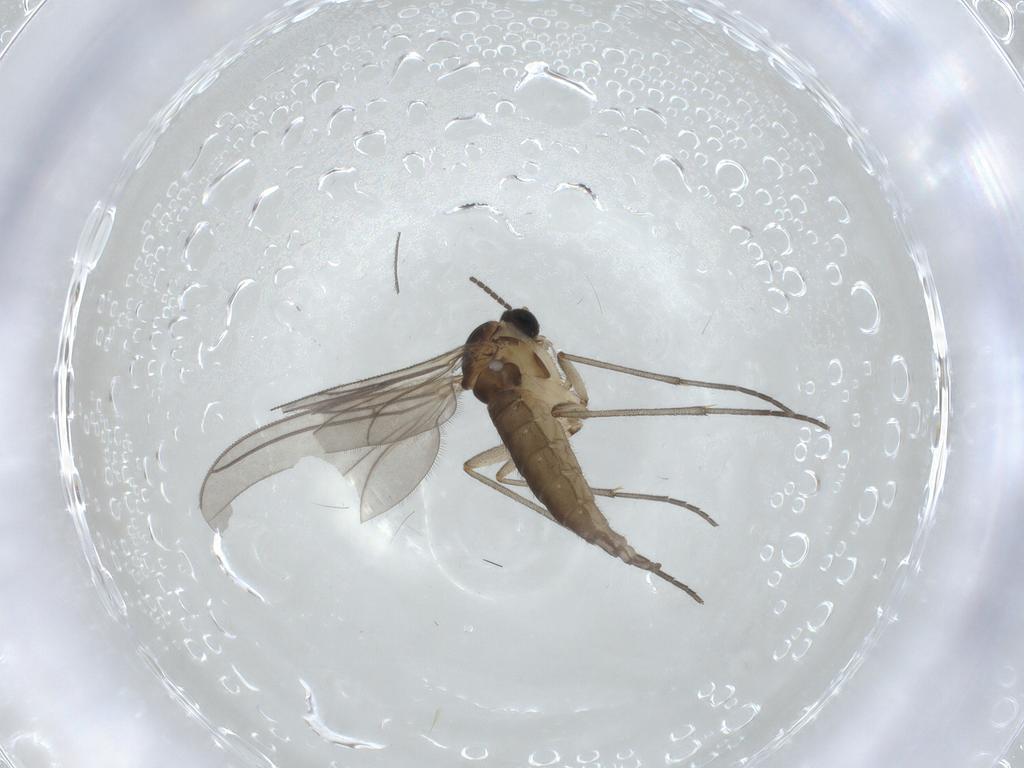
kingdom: Animalia
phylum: Arthropoda
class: Insecta
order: Diptera
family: Sciaridae
